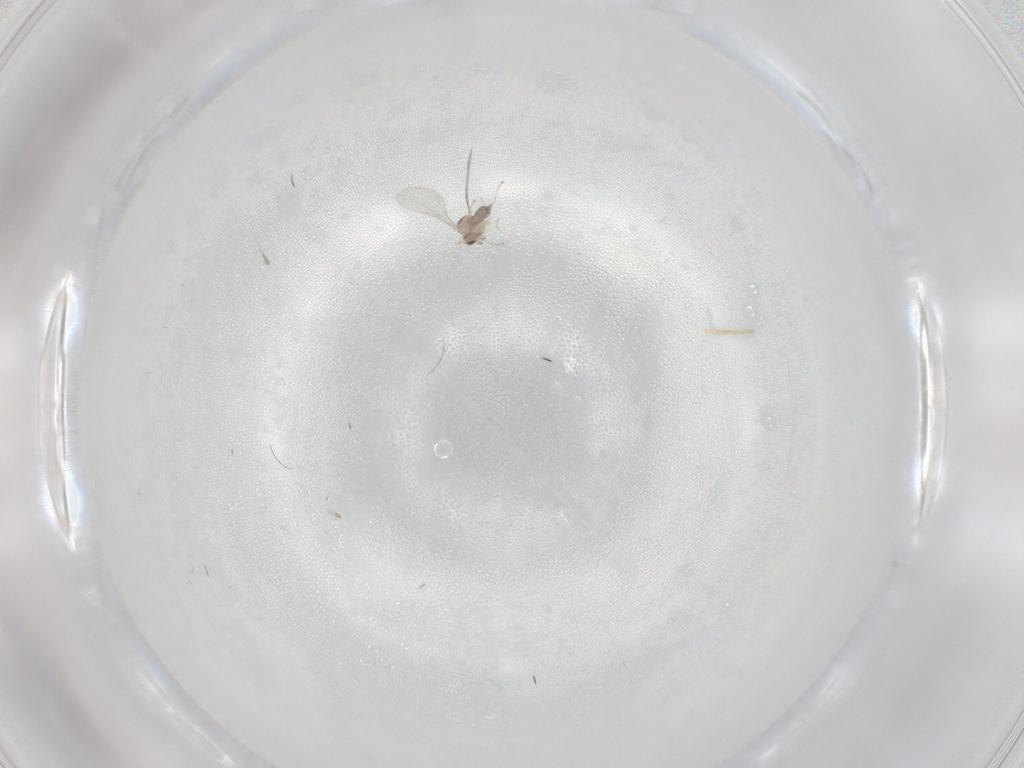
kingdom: Animalia
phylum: Arthropoda
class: Insecta
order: Diptera
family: Cecidomyiidae
